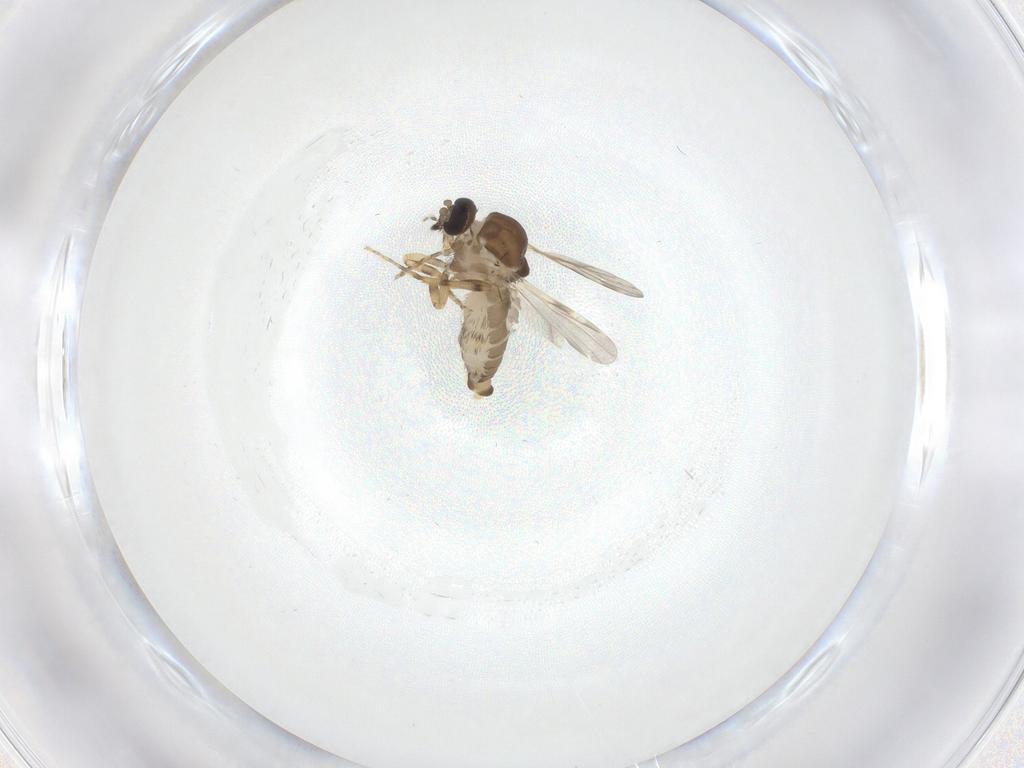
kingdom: Animalia
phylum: Arthropoda
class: Insecta
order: Diptera
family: Ceratopogonidae
